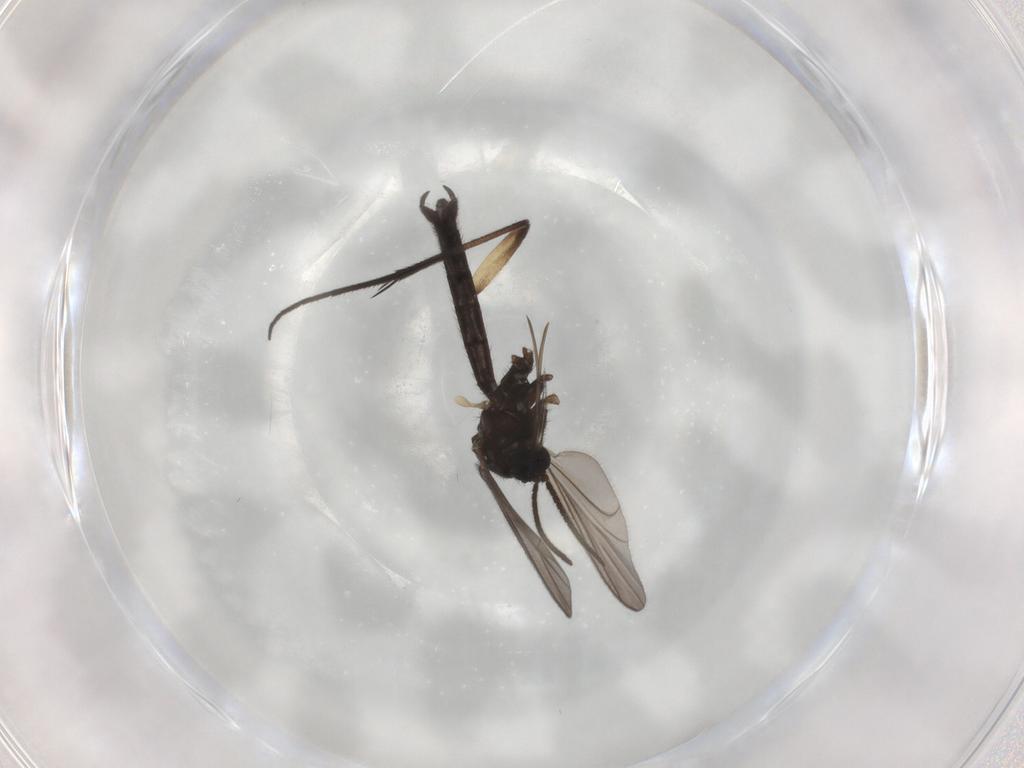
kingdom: Animalia
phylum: Arthropoda
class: Insecta
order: Diptera
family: Keroplatidae
